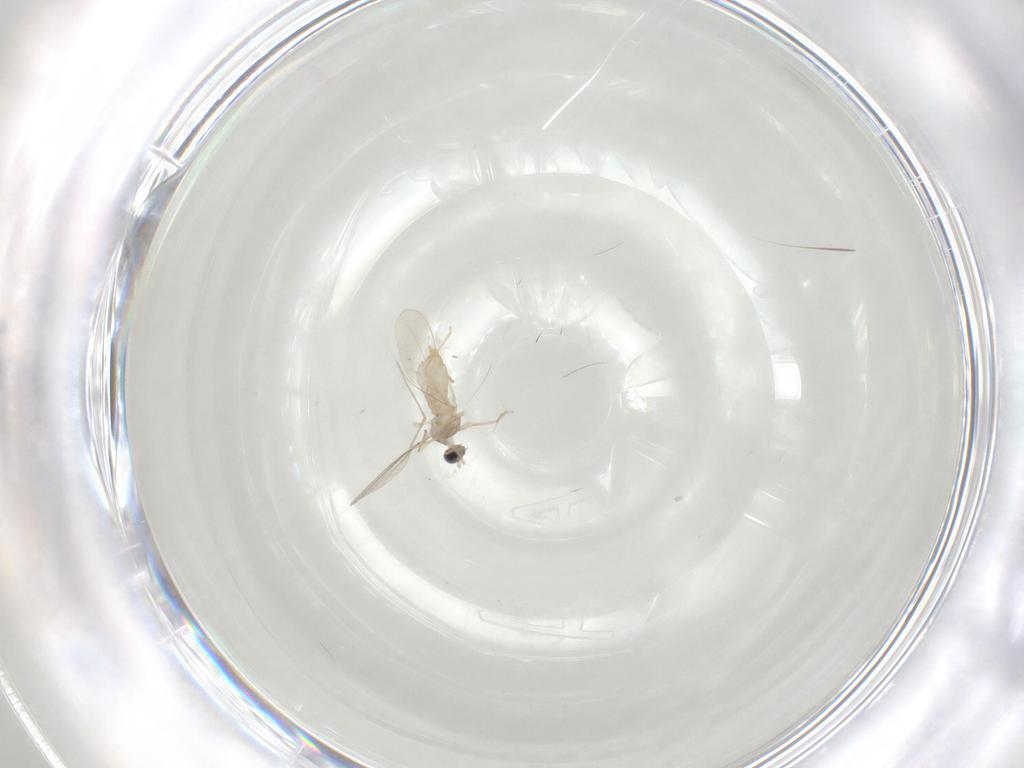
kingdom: Animalia
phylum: Arthropoda
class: Insecta
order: Diptera
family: Cecidomyiidae
